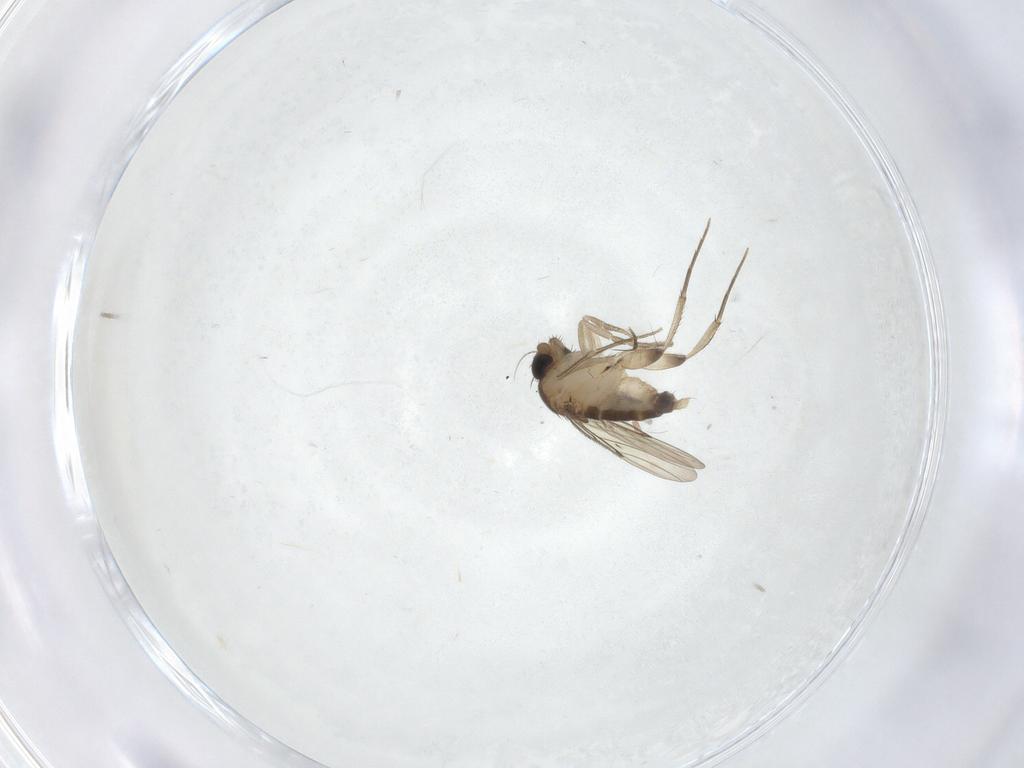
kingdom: Animalia
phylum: Arthropoda
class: Insecta
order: Diptera
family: Phoridae
